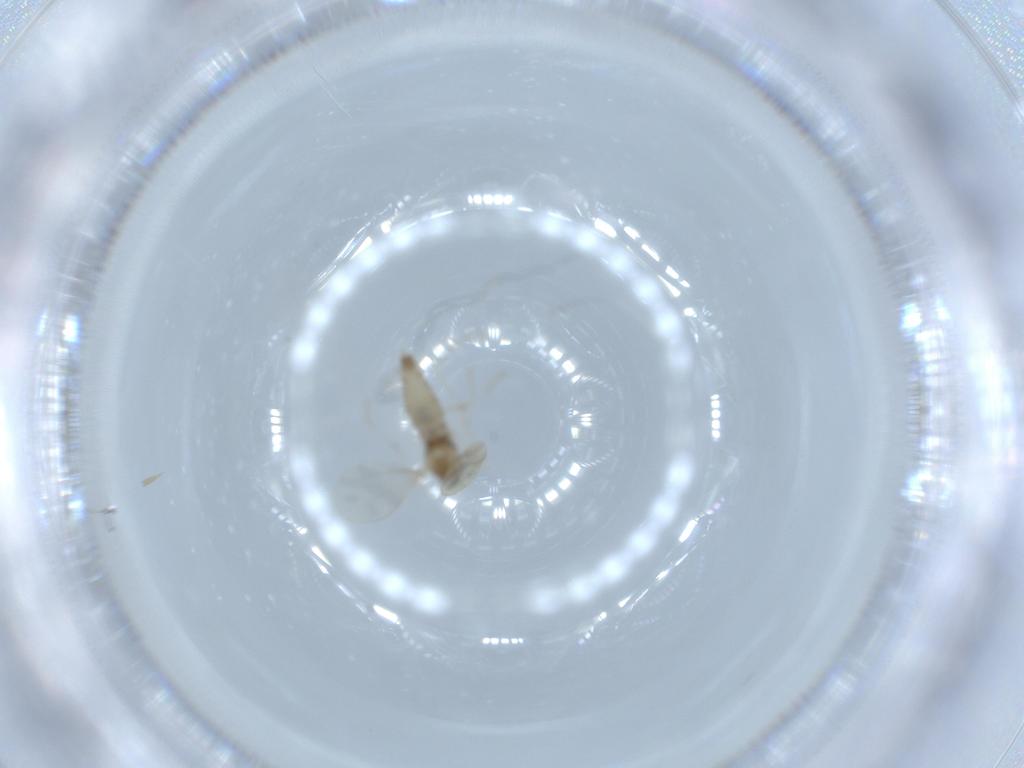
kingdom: Animalia
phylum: Arthropoda
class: Insecta
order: Diptera
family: Cecidomyiidae
